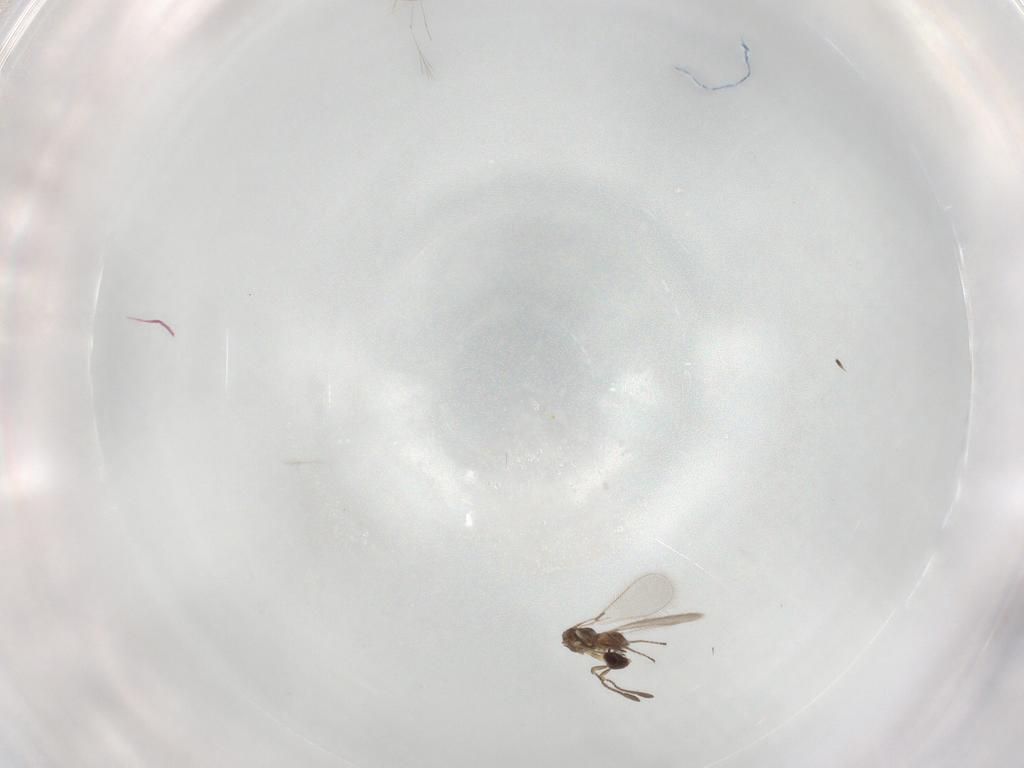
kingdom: Animalia
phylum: Arthropoda
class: Insecta
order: Hymenoptera
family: Mymaridae
